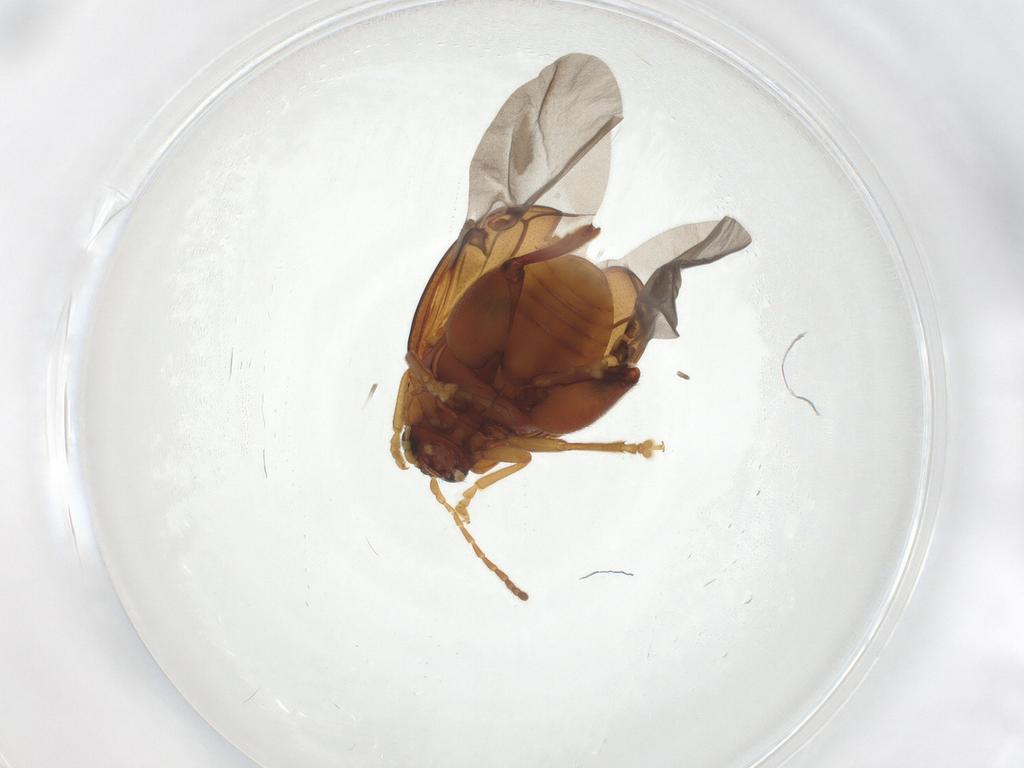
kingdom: Animalia
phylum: Arthropoda
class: Insecta
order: Coleoptera
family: Chrysomelidae
